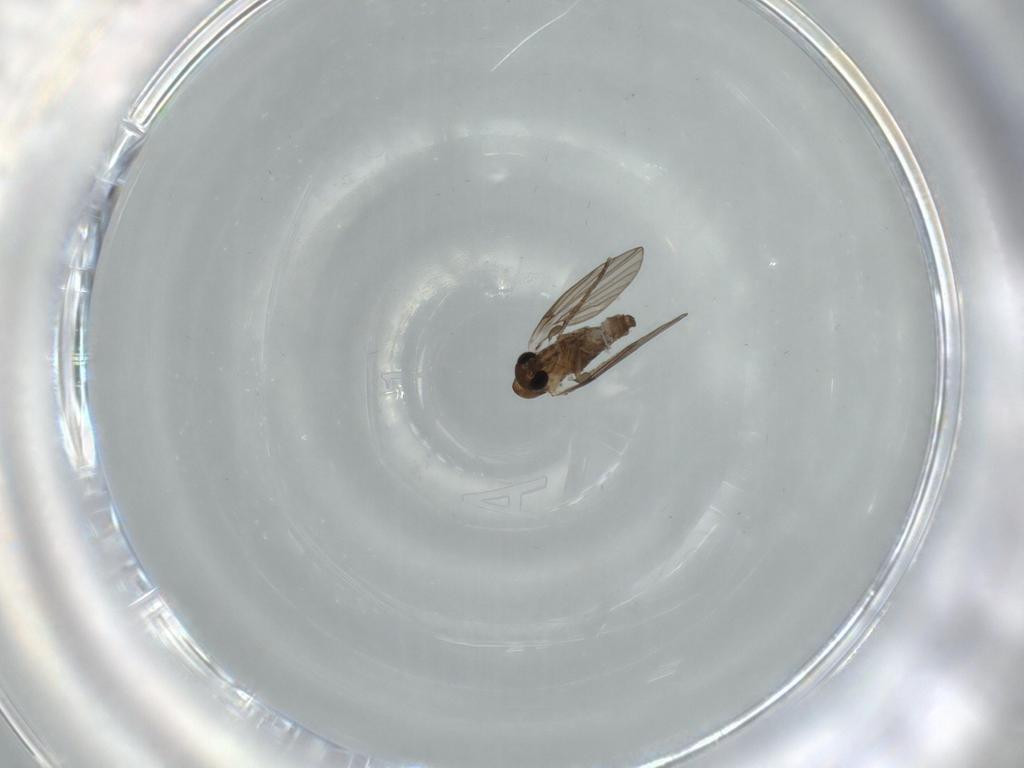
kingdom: Animalia
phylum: Arthropoda
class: Insecta
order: Diptera
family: Psychodidae
